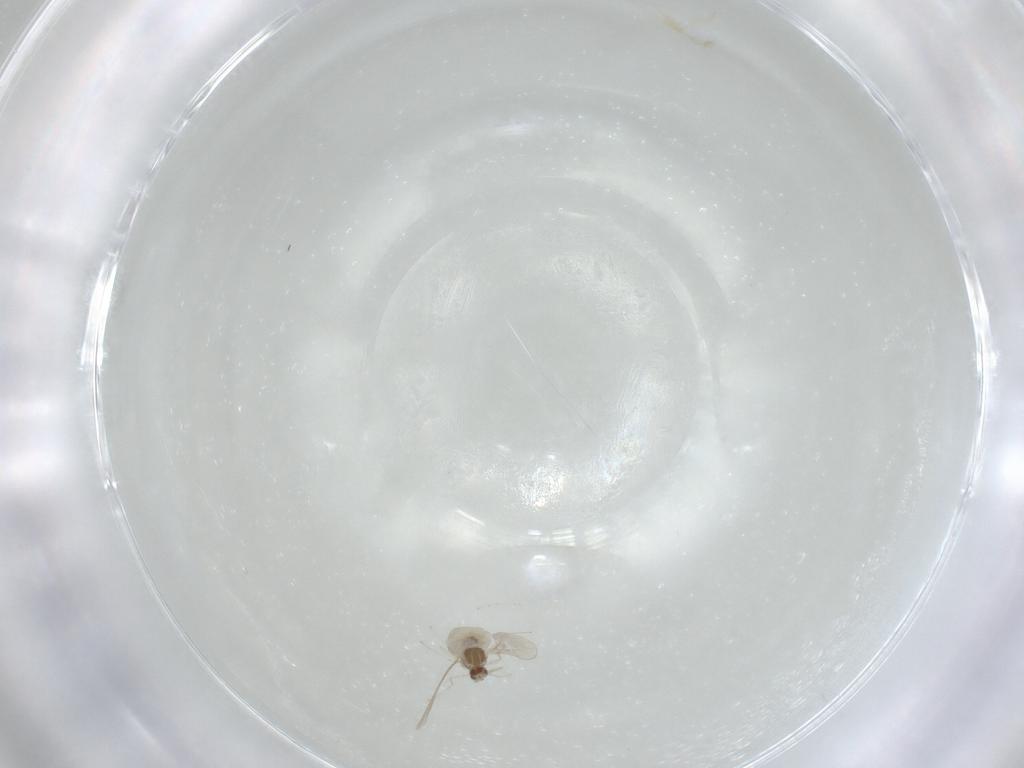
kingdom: Animalia
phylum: Arthropoda
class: Insecta
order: Diptera
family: Cecidomyiidae
